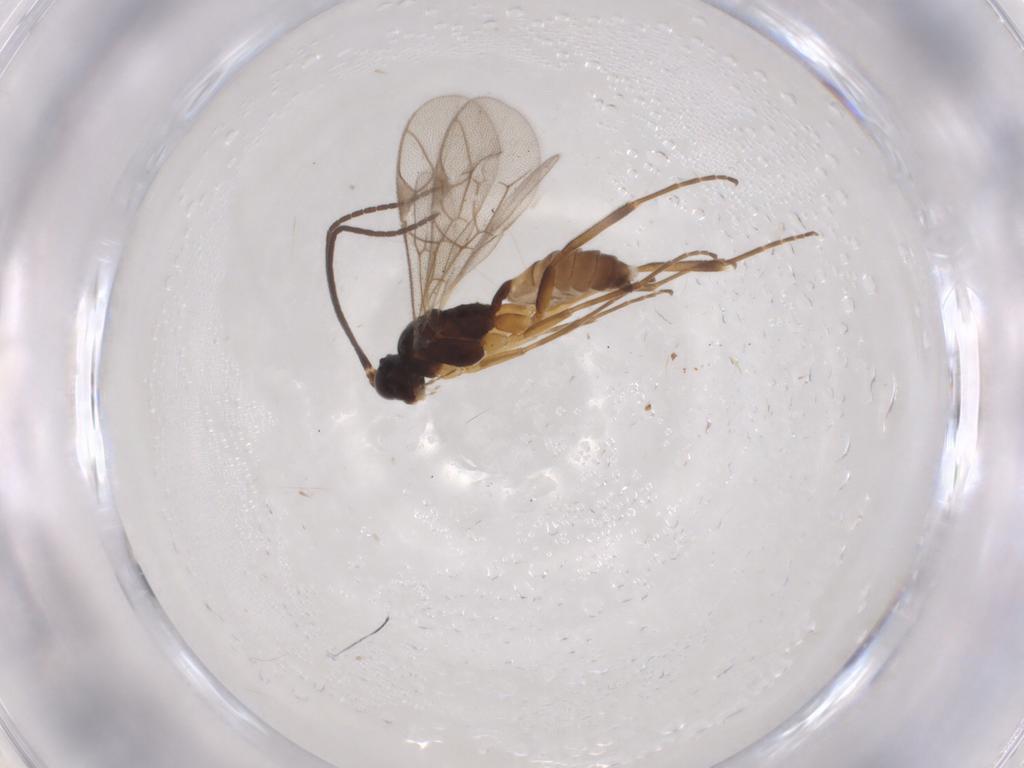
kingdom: Animalia
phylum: Arthropoda
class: Insecta
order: Hymenoptera
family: Ichneumonidae
